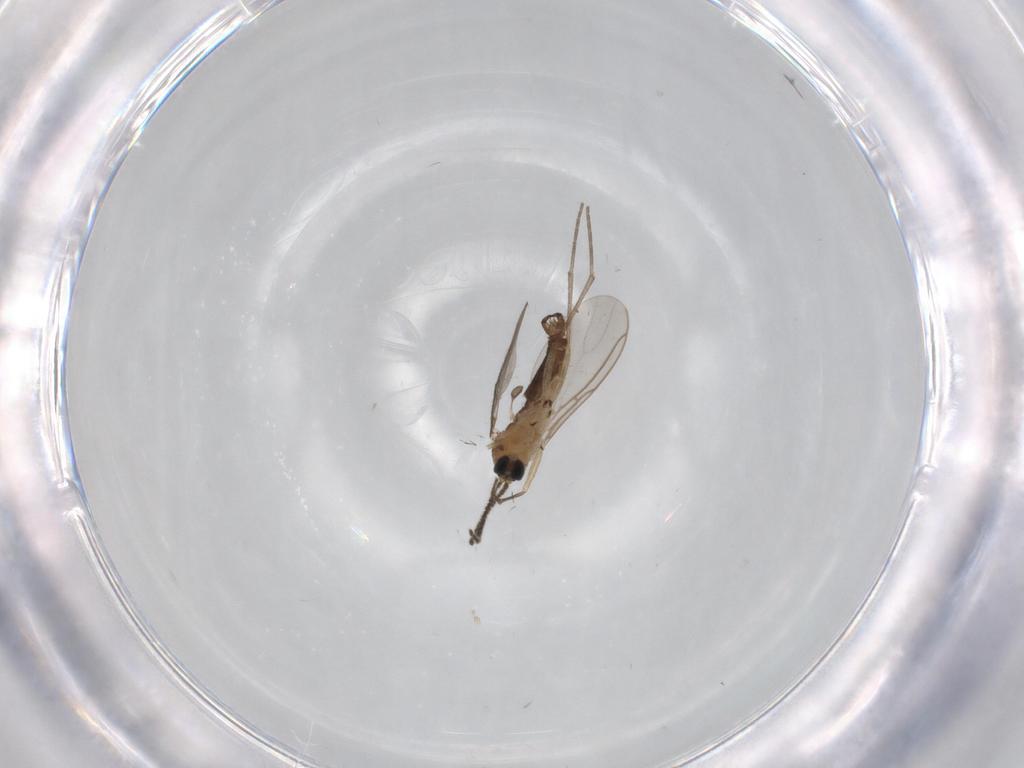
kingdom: Animalia
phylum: Arthropoda
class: Insecta
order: Diptera
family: Sciaridae
